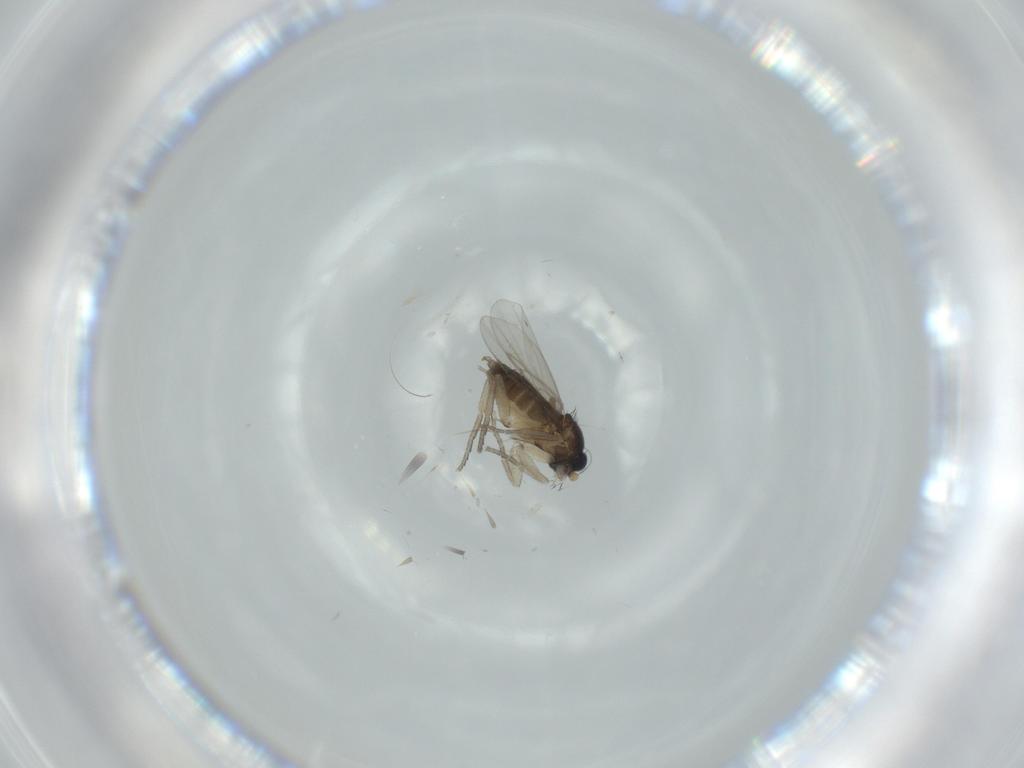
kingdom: Animalia
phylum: Arthropoda
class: Insecta
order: Diptera
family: Phoridae
